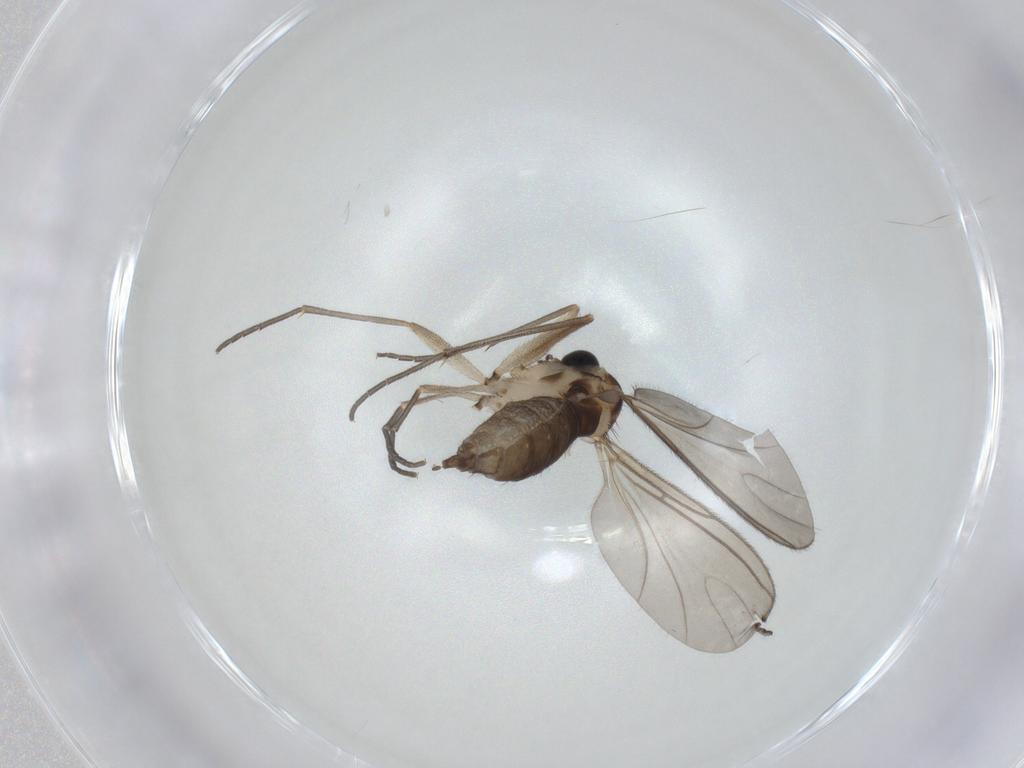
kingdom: Animalia
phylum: Arthropoda
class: Insecta
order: Diptera
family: Sciaridae
